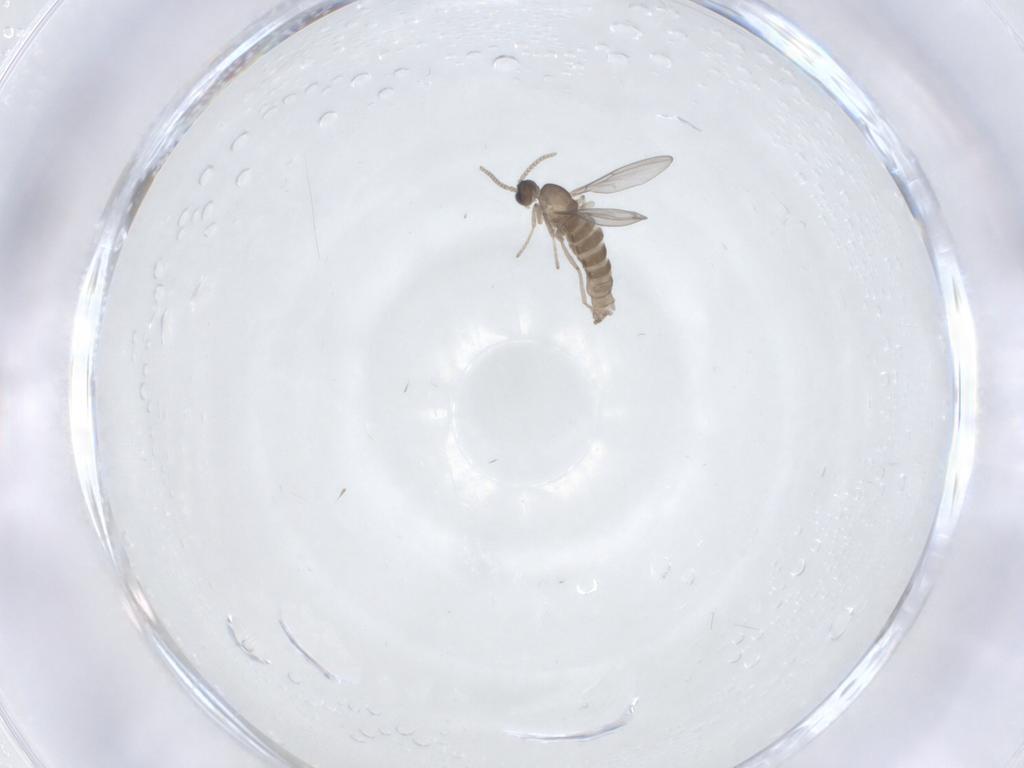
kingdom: Animalia
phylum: Arthropoda
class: Insecta
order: Diptera
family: Cecidomyiidae
